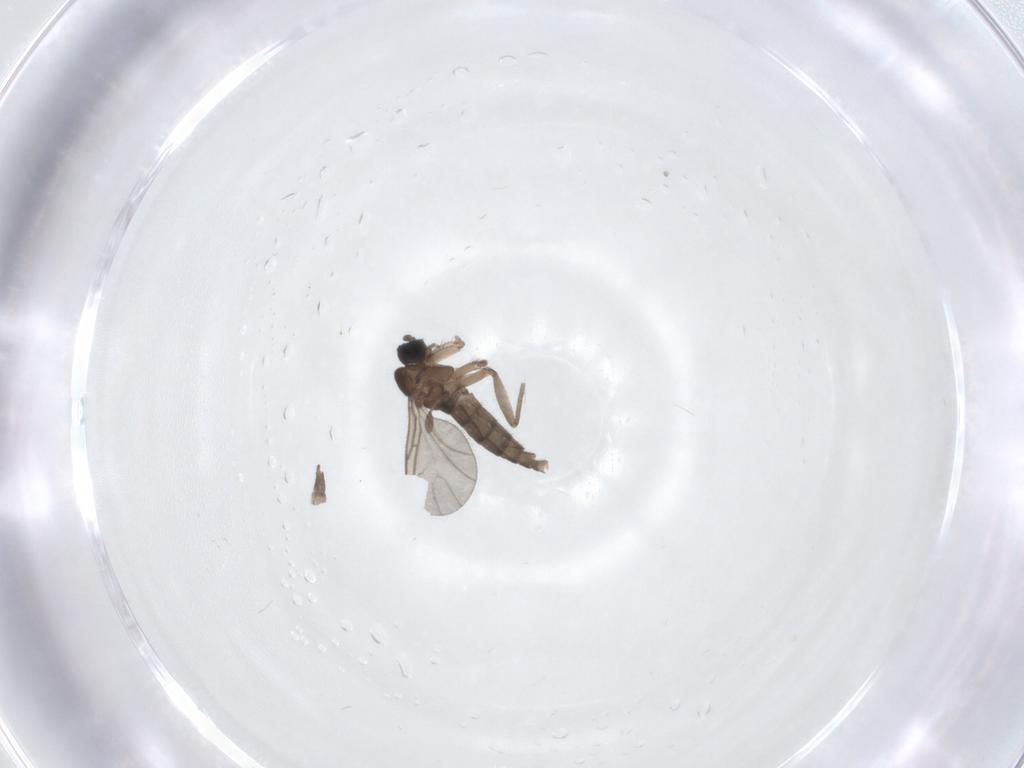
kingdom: Animalia
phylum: Arthropoda
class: Insecta
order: Diptera
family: Sciaridae
